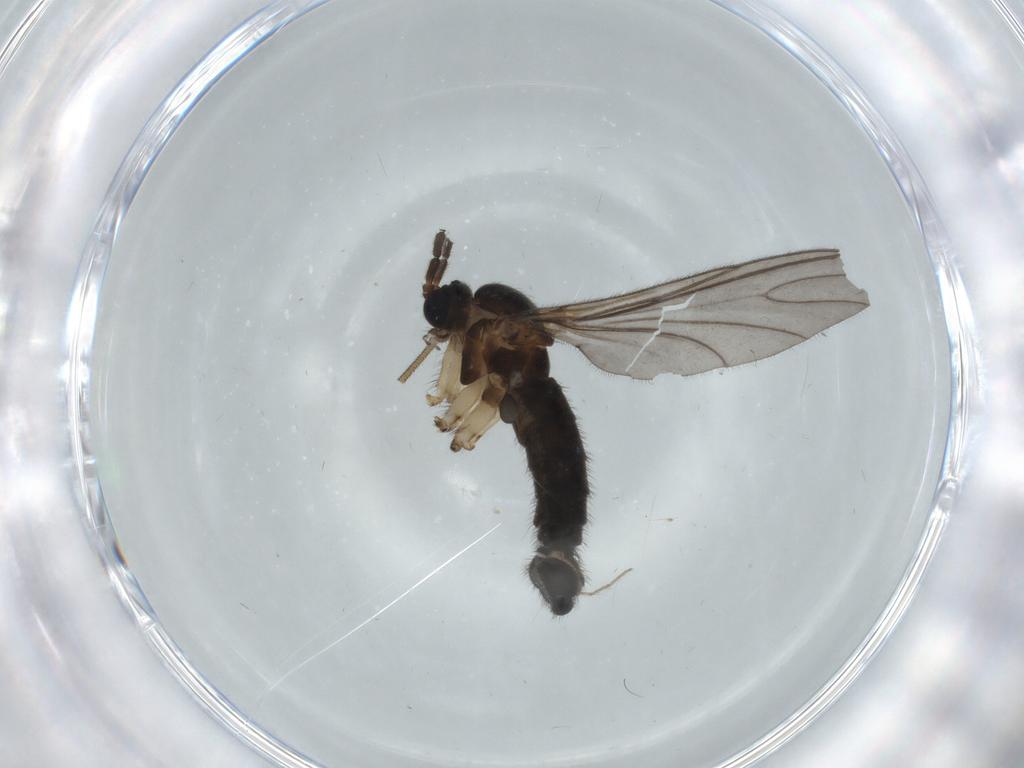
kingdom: Animalia
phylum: Arthropoda
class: Insecta
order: Diptera
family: Sciaridae
